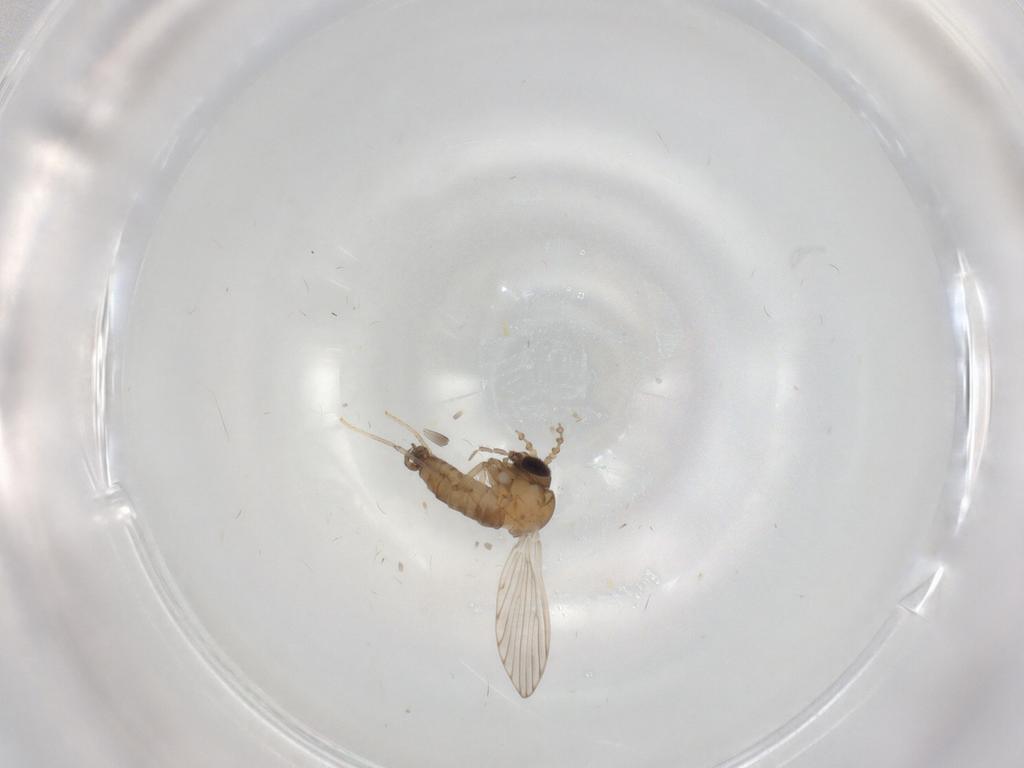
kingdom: Animalia
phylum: Arthropoda
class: Insecta
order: Diptera
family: Psychodidae
